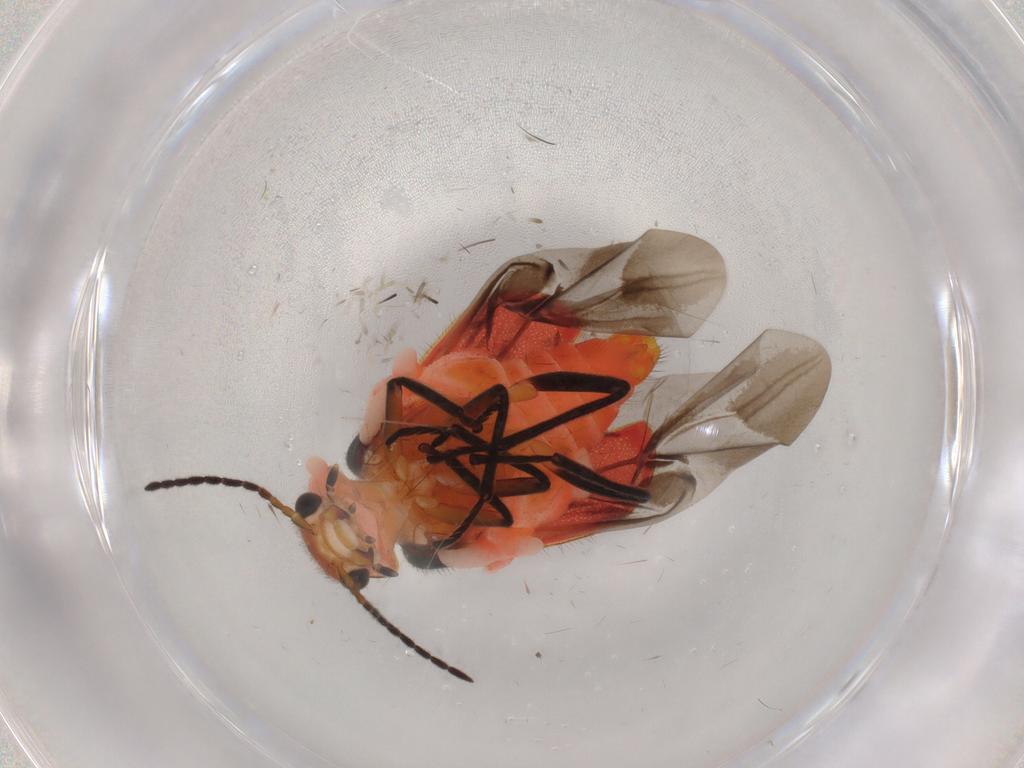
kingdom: Animalia
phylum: Arthropoda
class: Insecta
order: Coleoptera
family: Melyridae
